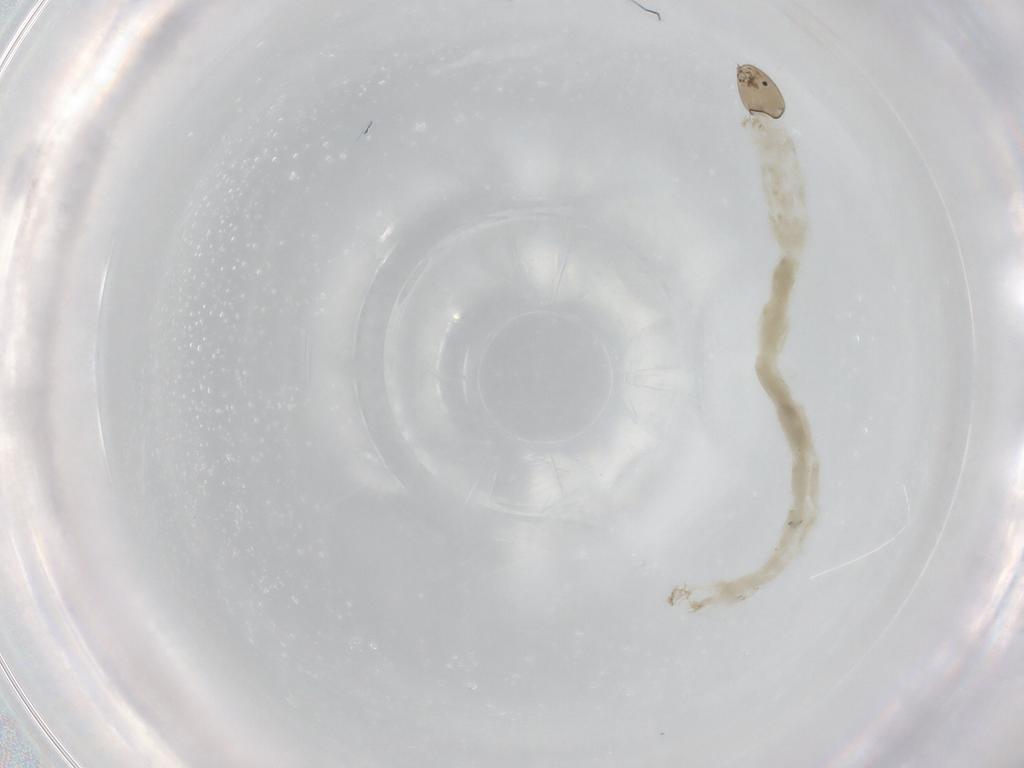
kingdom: Animalia
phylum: Arthropoda
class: Insecta
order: Diptera
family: Chironomidae
